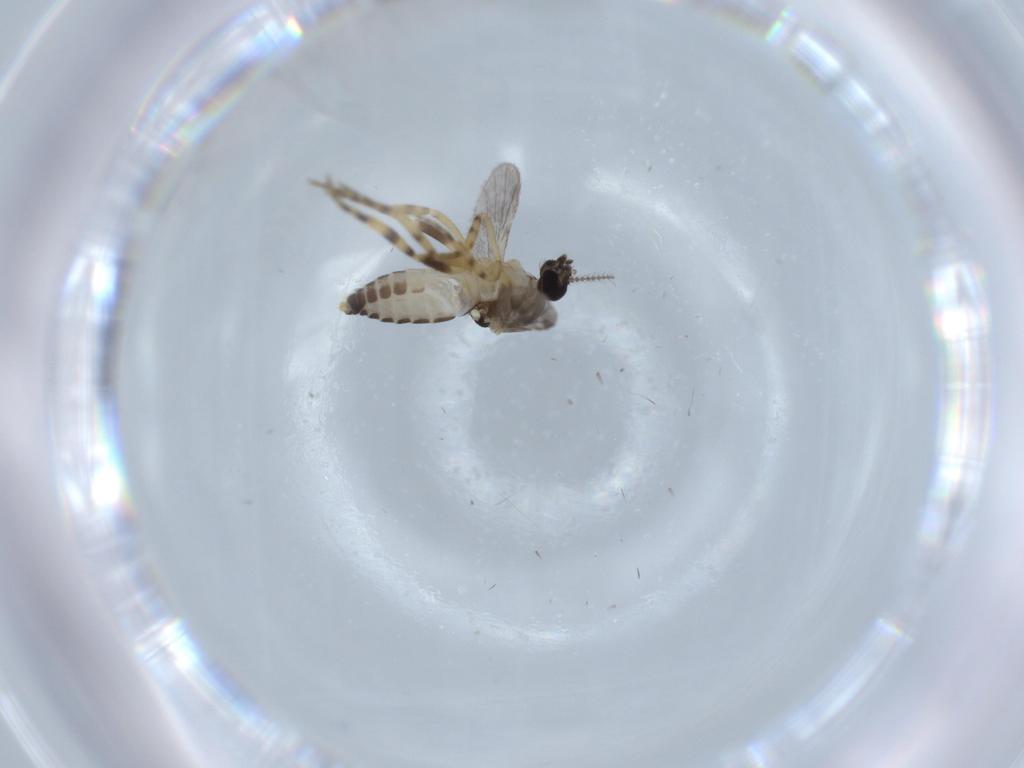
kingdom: Animalia
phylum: Arthropoda
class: Insecta
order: Diptera
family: Ceratopogonidae
